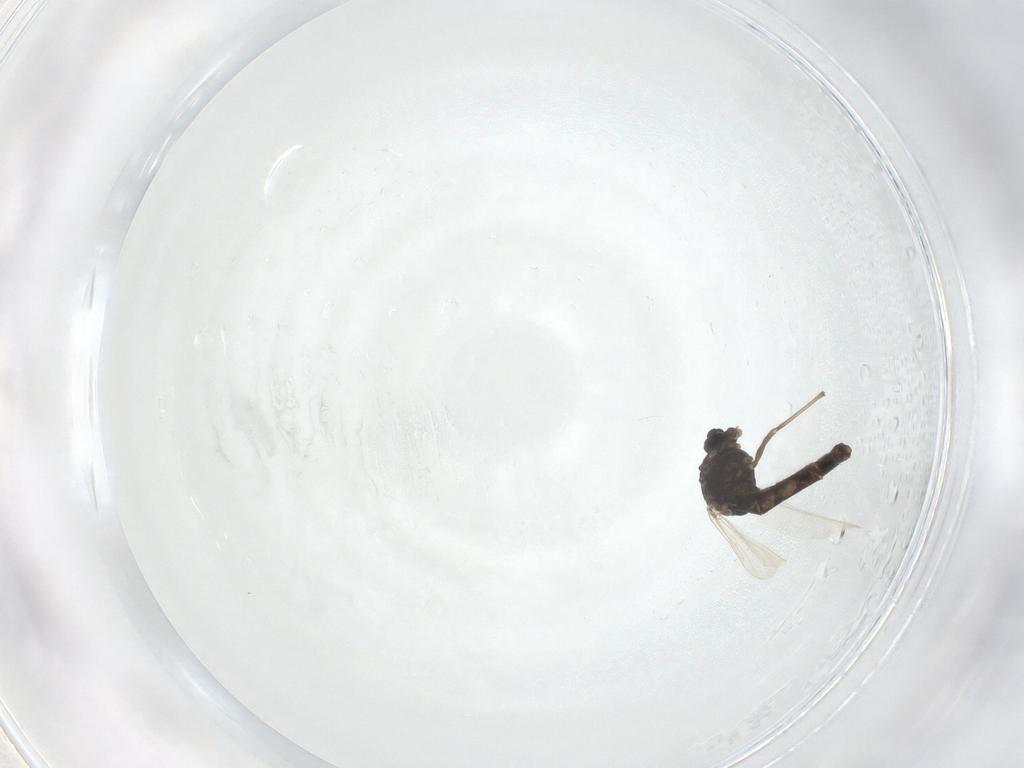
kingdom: Animalia
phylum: Arthropoda
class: Insecta
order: Diptera
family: Chironomidae
